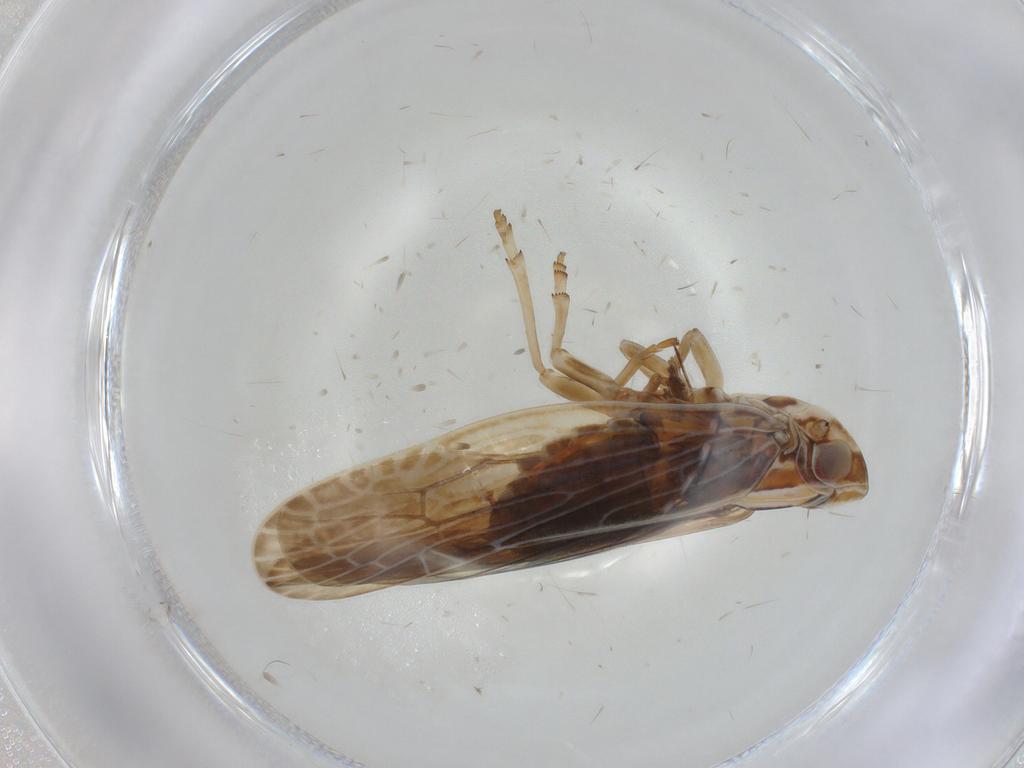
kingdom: Animalia
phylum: Arthropoda
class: Insecta
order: Hemiptera
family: Achilidae
